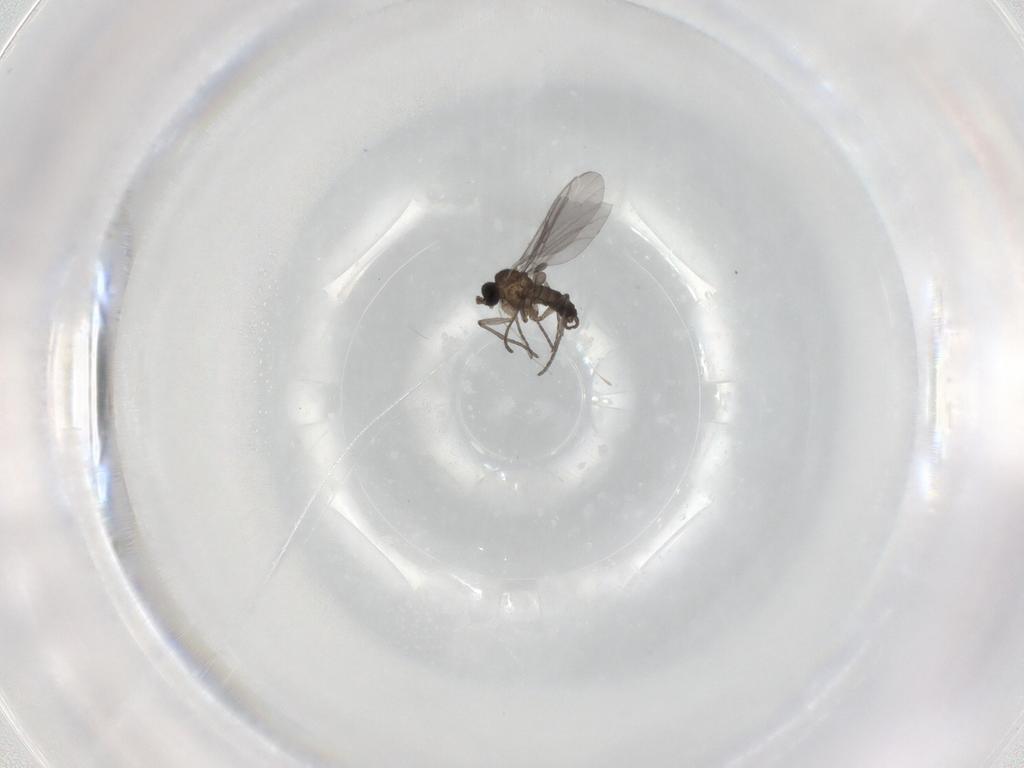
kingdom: Animalia
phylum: Arthropoda
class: Insecta
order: Diptera
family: Sciaridae
